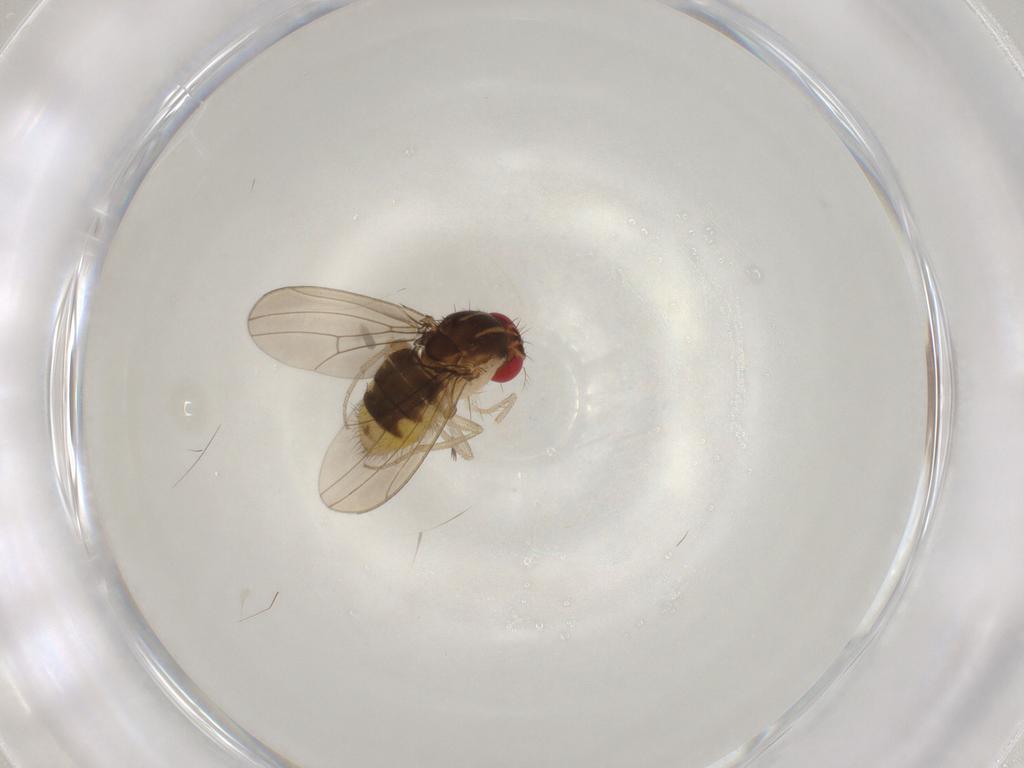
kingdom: Animalia
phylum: Arthropoda
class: Insecta
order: Diptera
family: Drosophilidae
